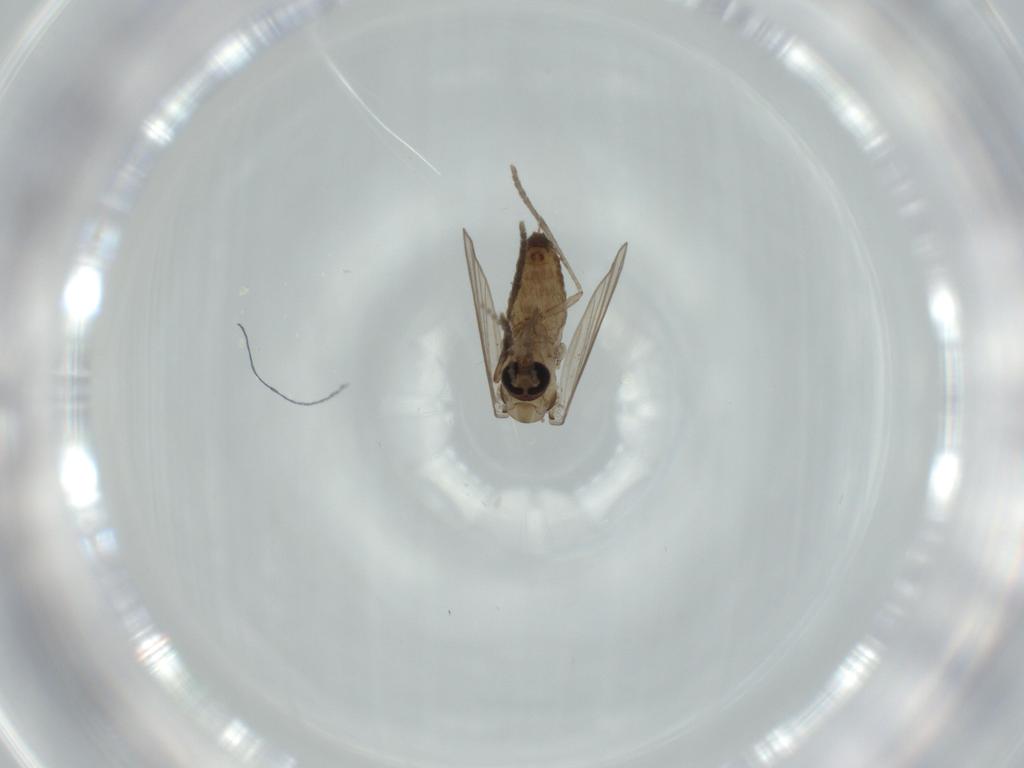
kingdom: Animalia
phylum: Arthropoda
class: Insecta
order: Diptera
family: Psychodidae
